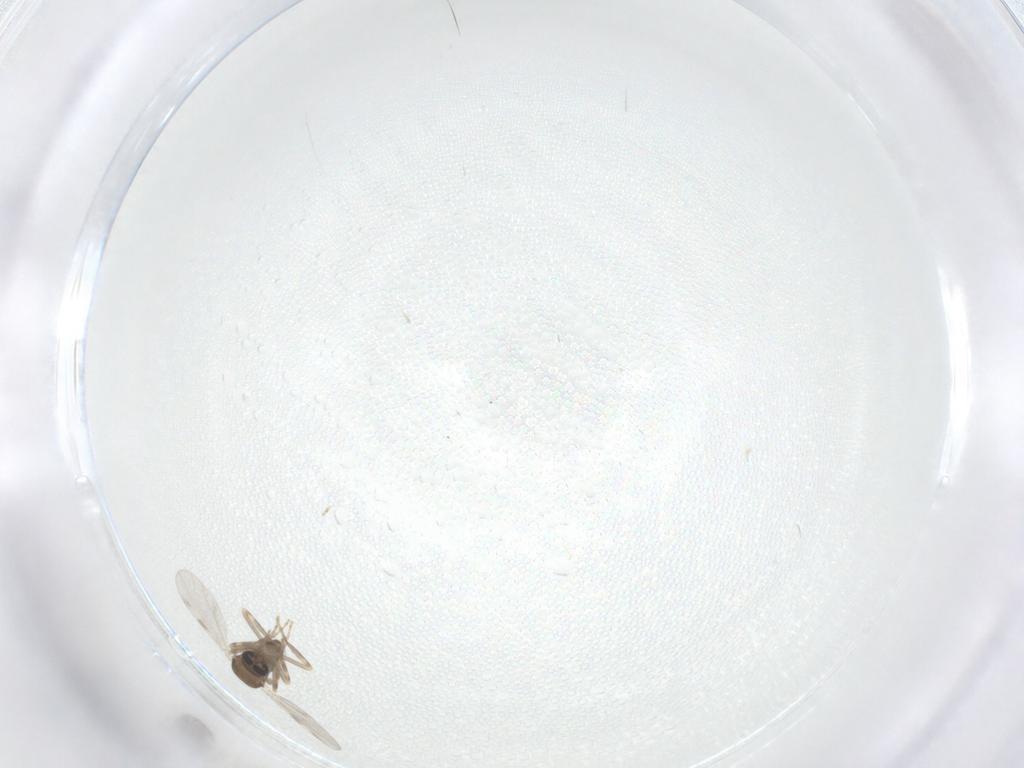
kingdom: Animalia
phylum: Arthropoda
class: Insecta
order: Diptera
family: Ceratopogonidae
